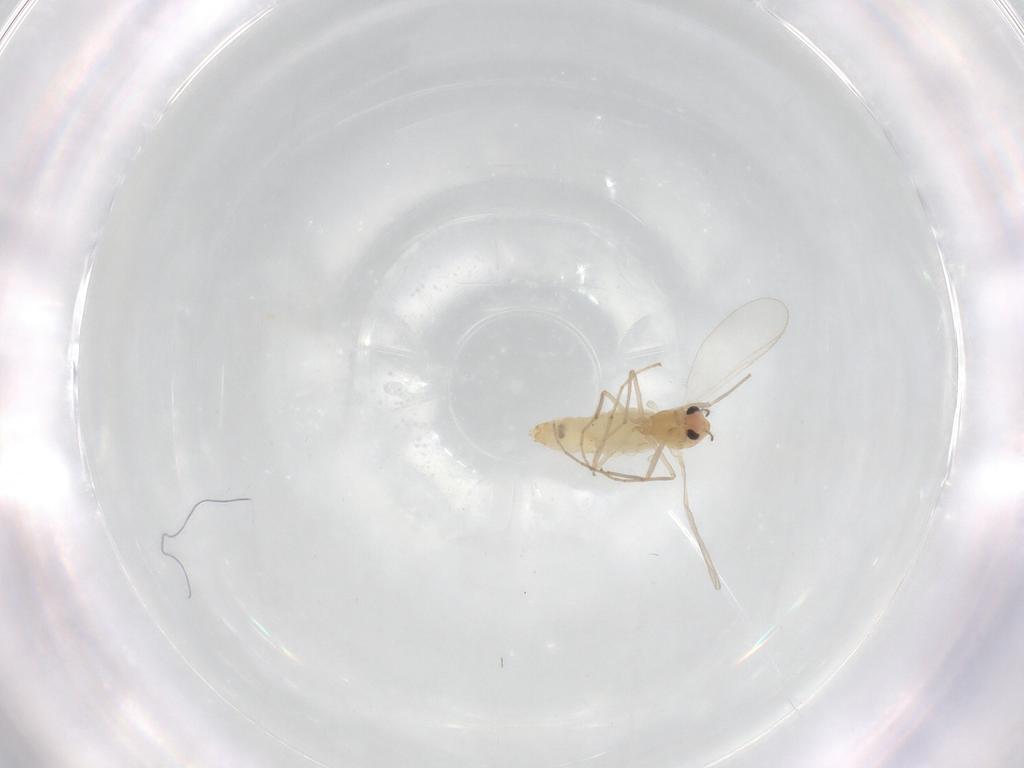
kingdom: Animalia
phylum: Arthropoda
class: Insecta
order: Diptera
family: Chironomidae
